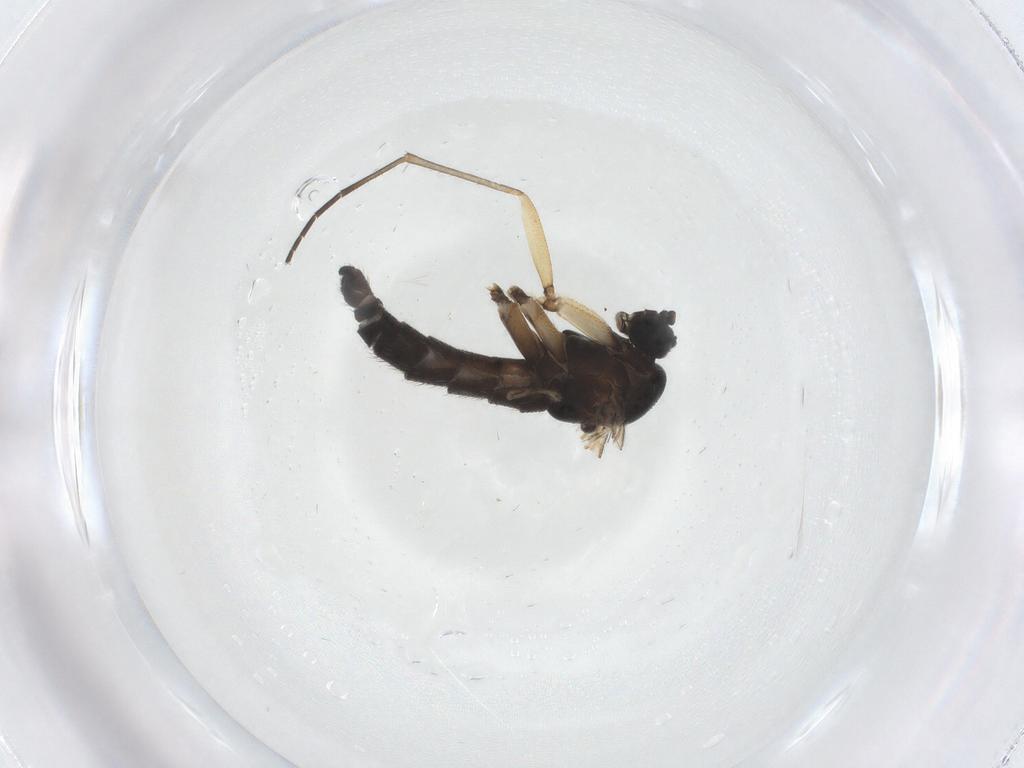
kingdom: Animalia
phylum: Arthropoda
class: Insecta
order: Diptera
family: Sciaridae
